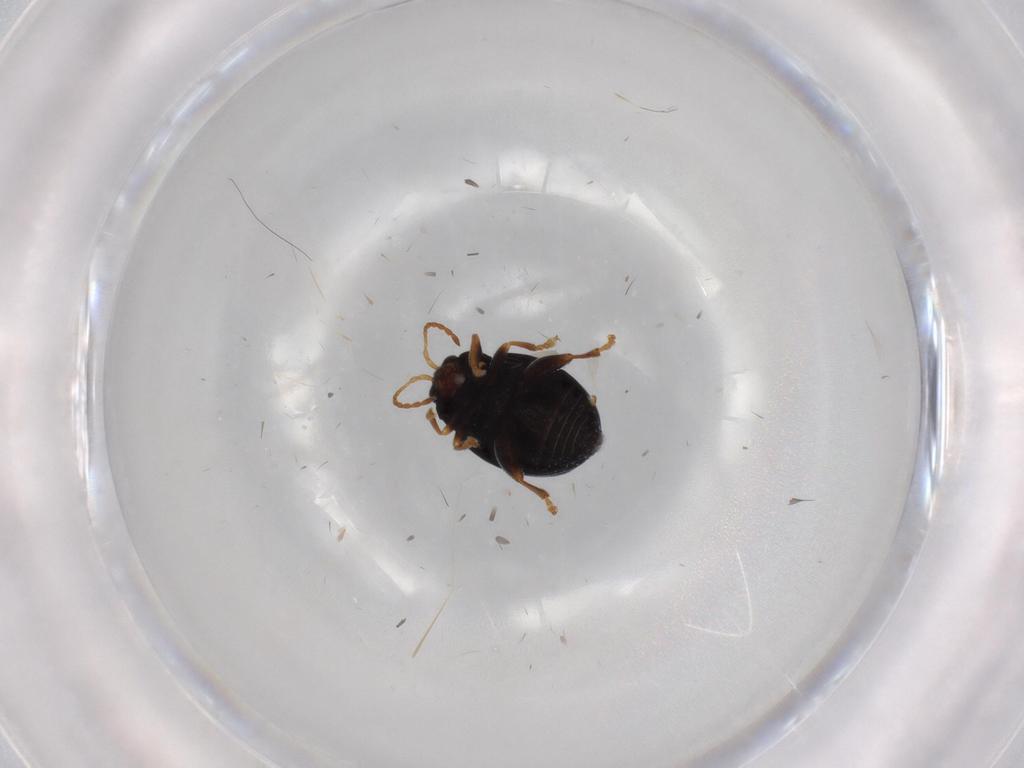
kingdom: Animalia
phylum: Arthropoda
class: Insecta
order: Coleoptera
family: Chrysomelidae
